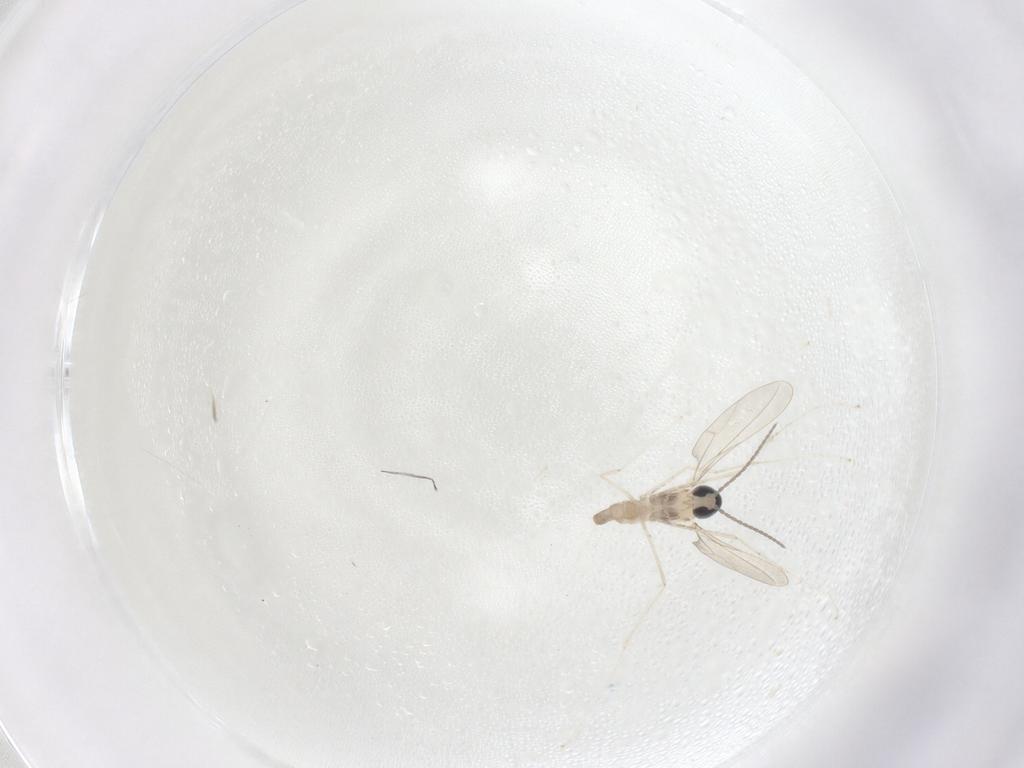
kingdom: Animalia
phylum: Arthropoda
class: Insecta
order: Diptera
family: Cecidomyiidae
